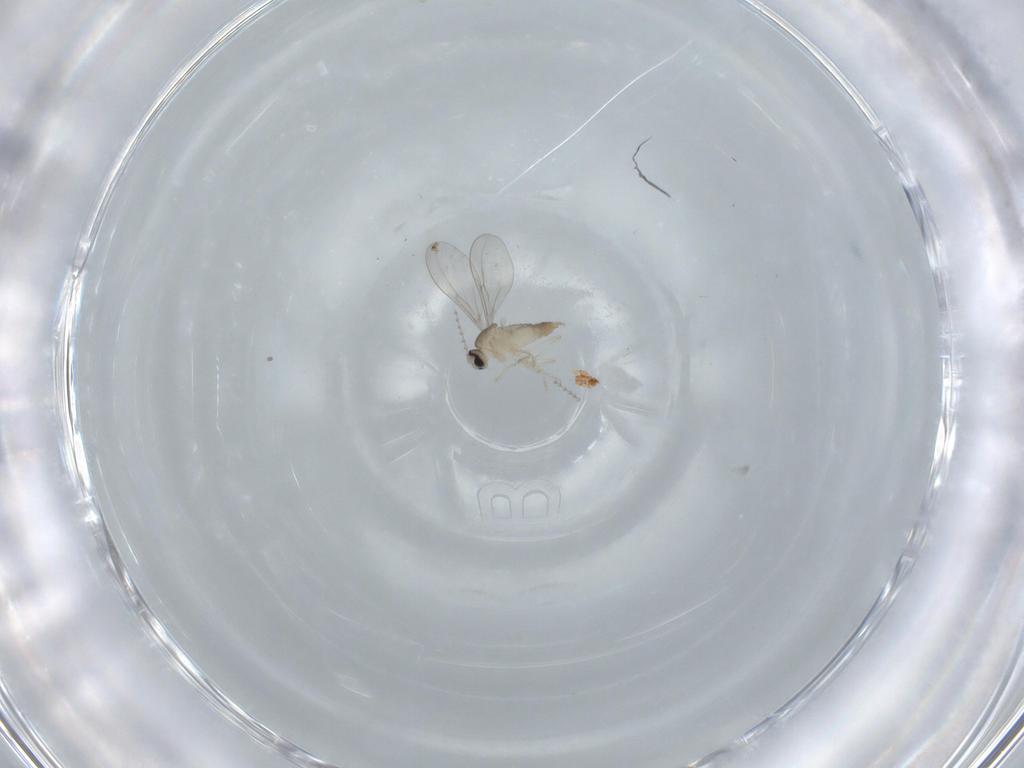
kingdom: Animalia
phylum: Arthropoda
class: Insecta
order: Diptera
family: Cecidomyiidae
